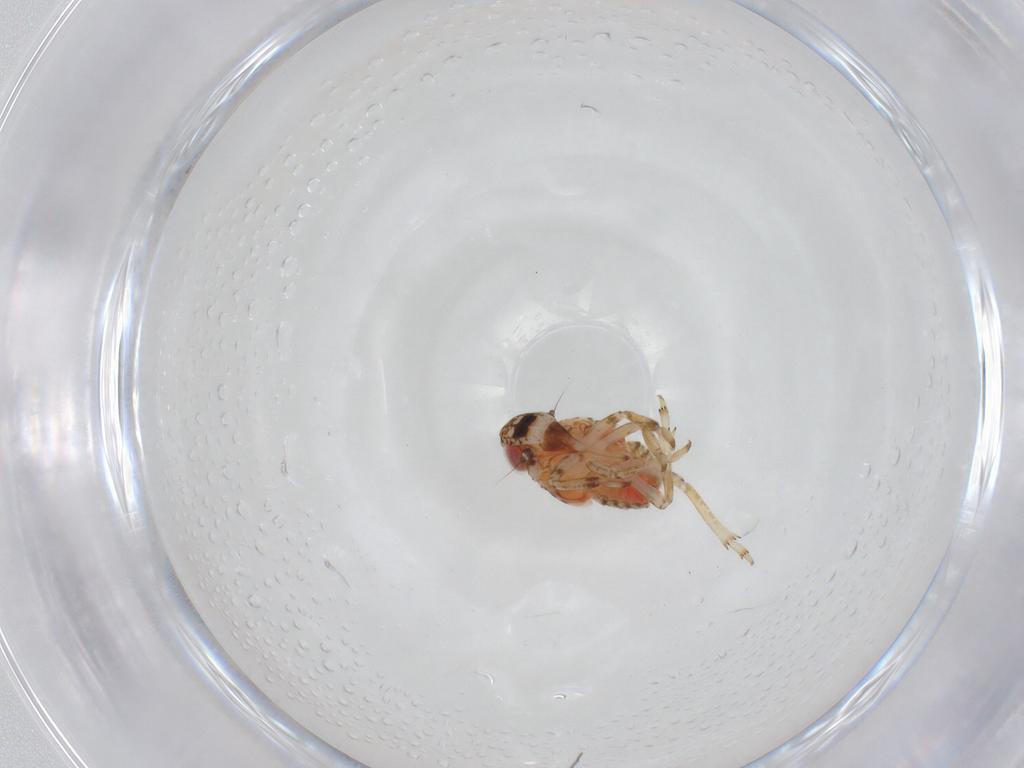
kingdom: Animalia
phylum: Arthropoda
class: Insecta
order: Hemiptera
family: Issidae
